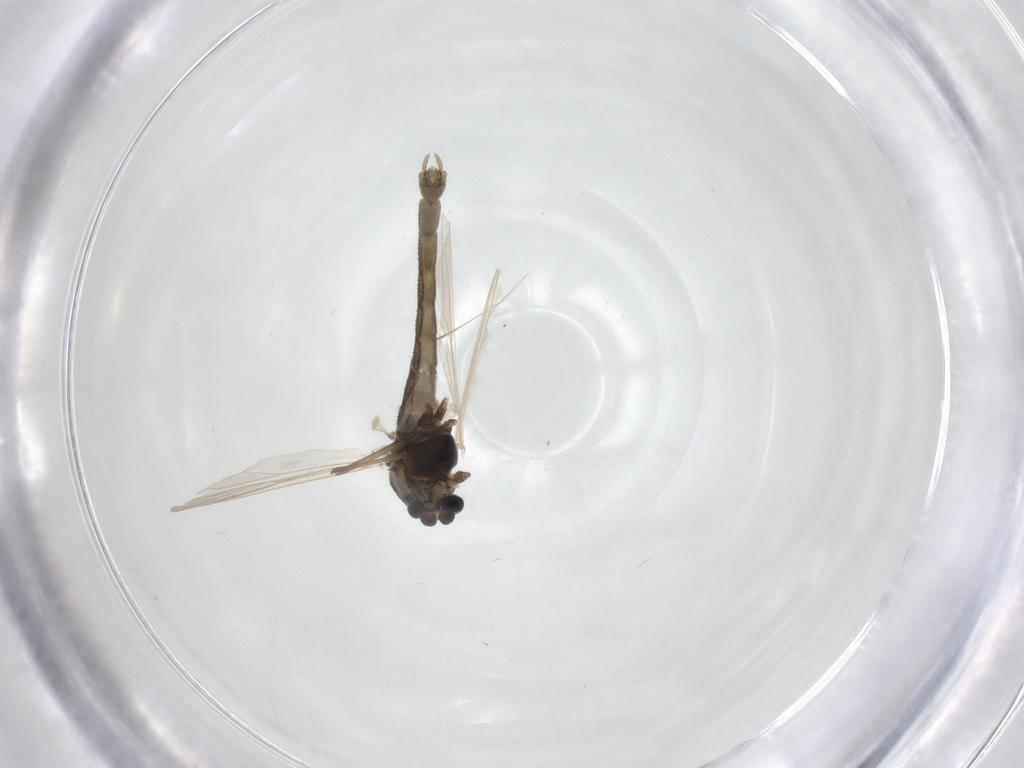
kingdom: Animalia
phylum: Arthropoda
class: Insecta
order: Diptera
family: Chironomidae
